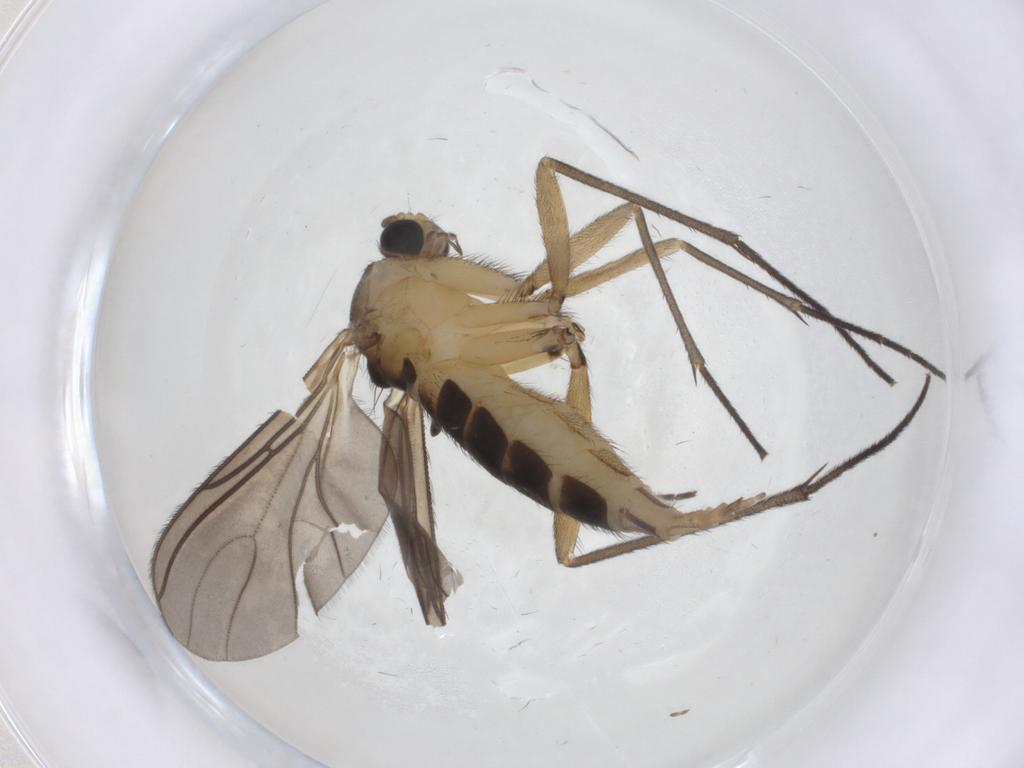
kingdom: Animalia
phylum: Arthropoda
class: Insecta
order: Diptera
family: Sciaridae
